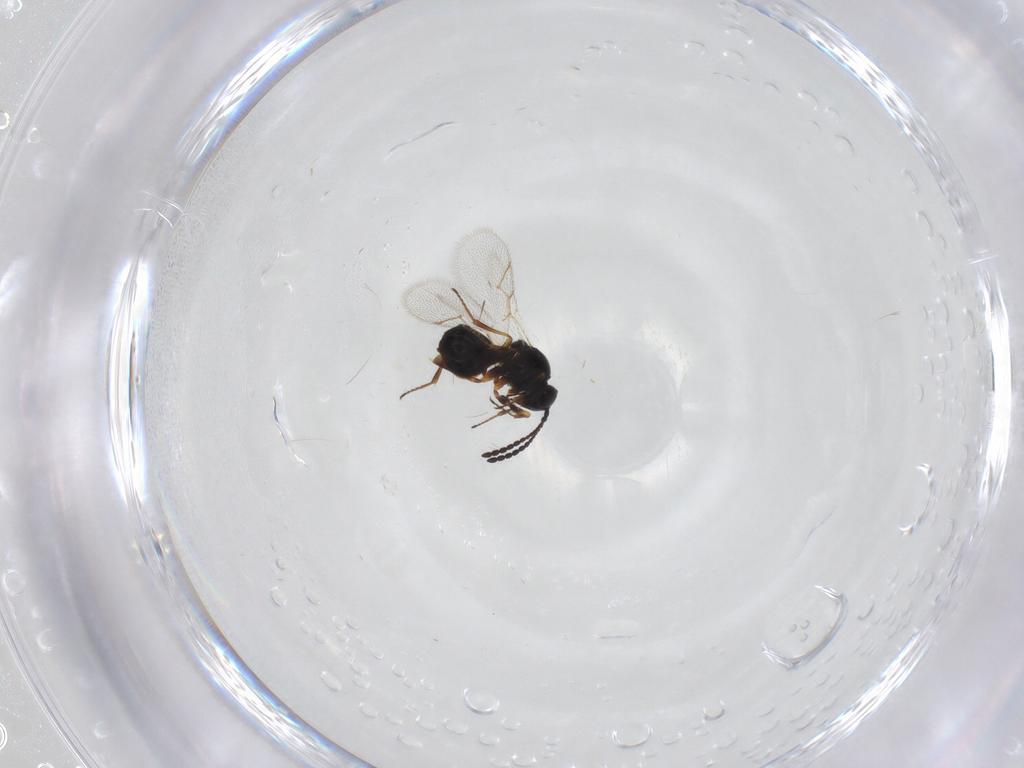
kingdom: Animalia
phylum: Arthropoda
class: Insecta
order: Hymenoptera
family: Figitidae
